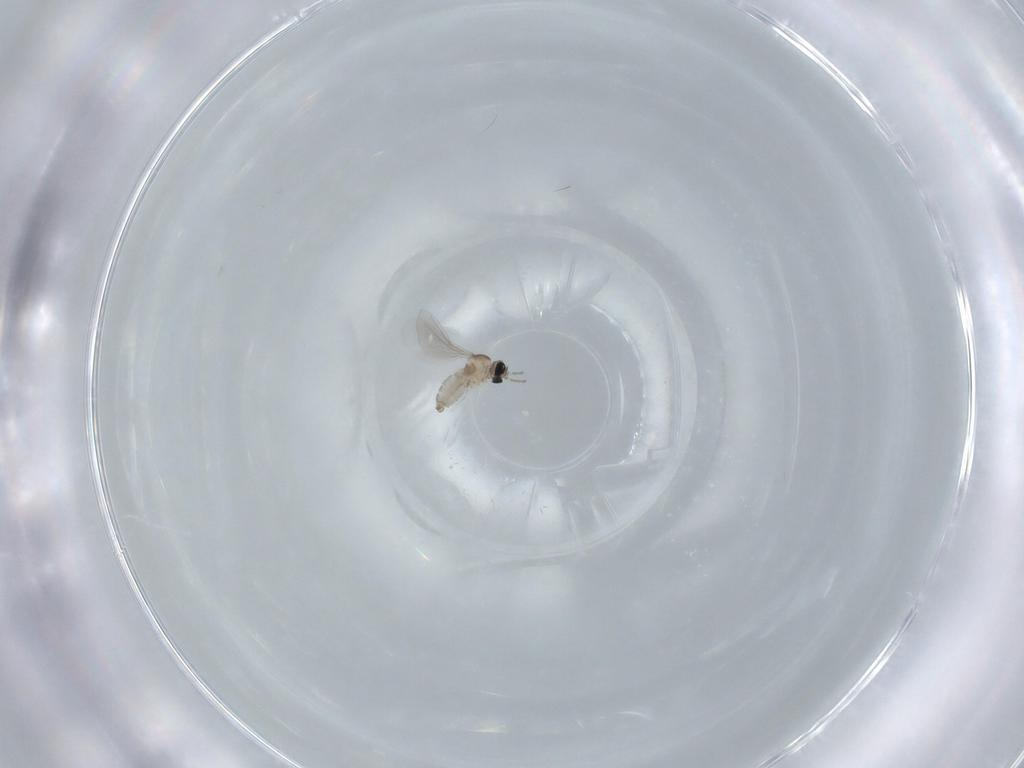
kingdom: Animalia
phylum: Arthropoda
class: Insecta
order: Diptera
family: Cecidomyiidae
